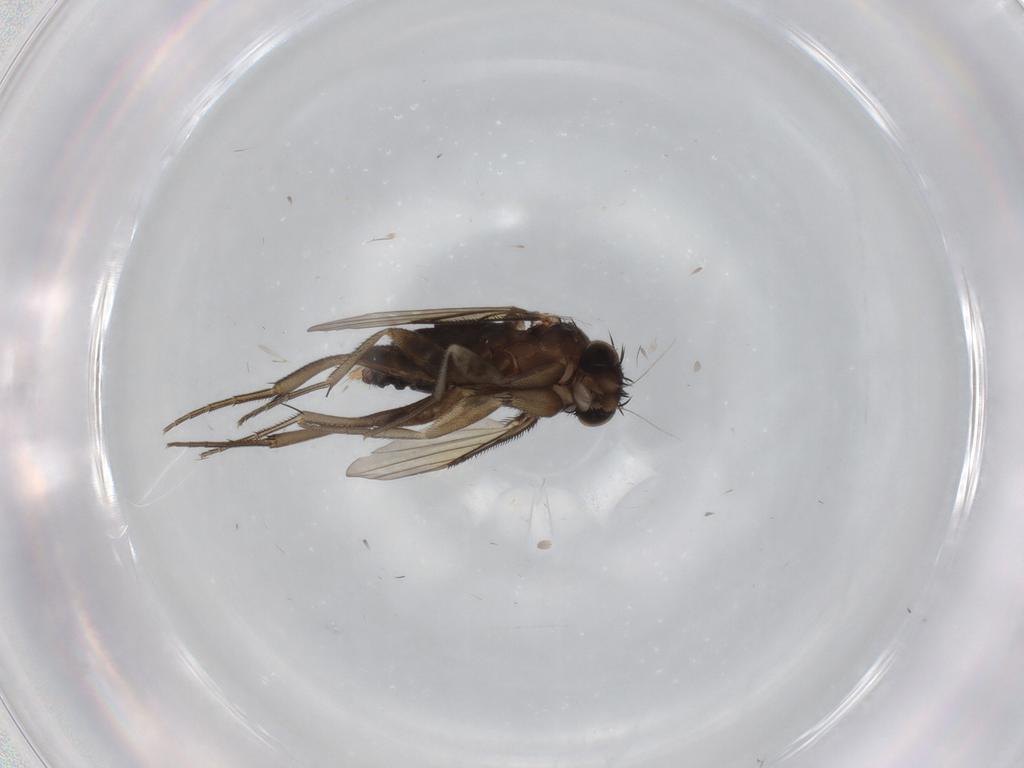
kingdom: Animalia
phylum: Arthropoda
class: Insecta
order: Diptera
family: Phoridae
